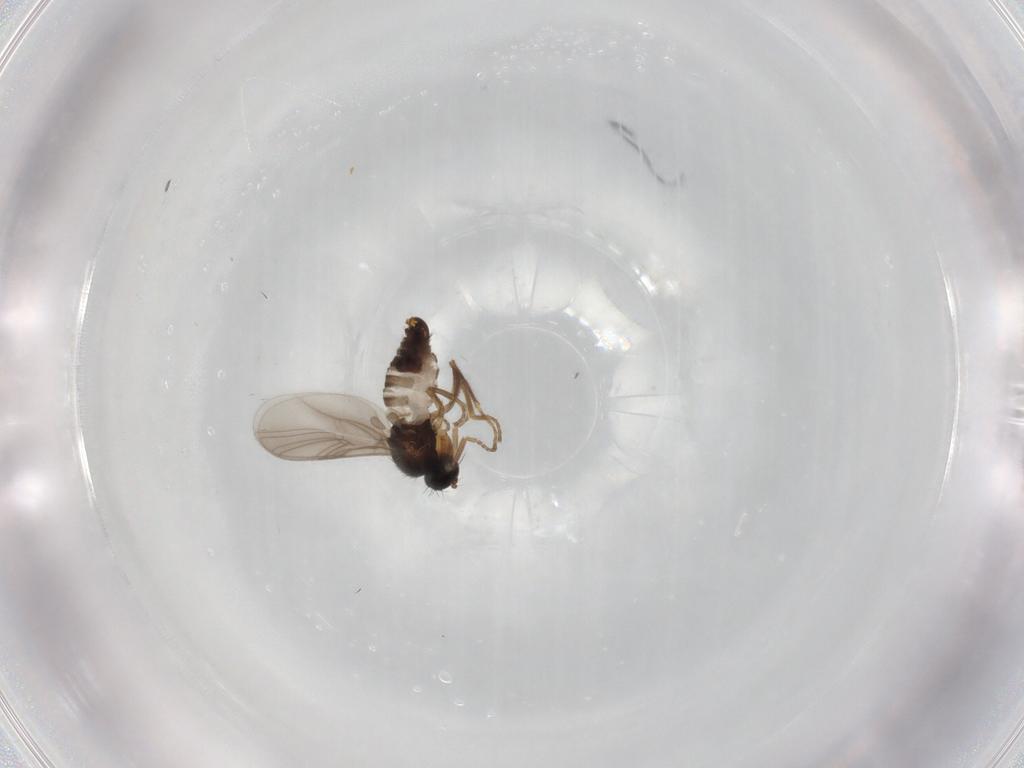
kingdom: Animalia
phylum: Arthropoda
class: Insecta
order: Diptera
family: Hybotidae
